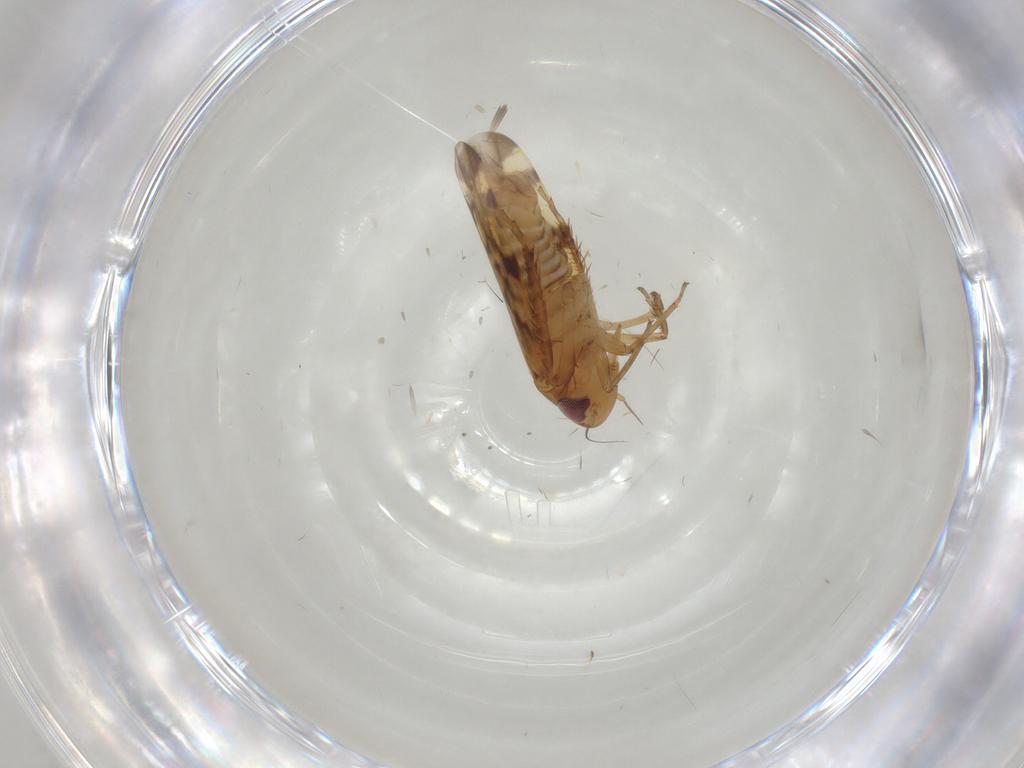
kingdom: Animalia
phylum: Arthropoda
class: Insecta
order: Hemiptera
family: Cicadellidae
